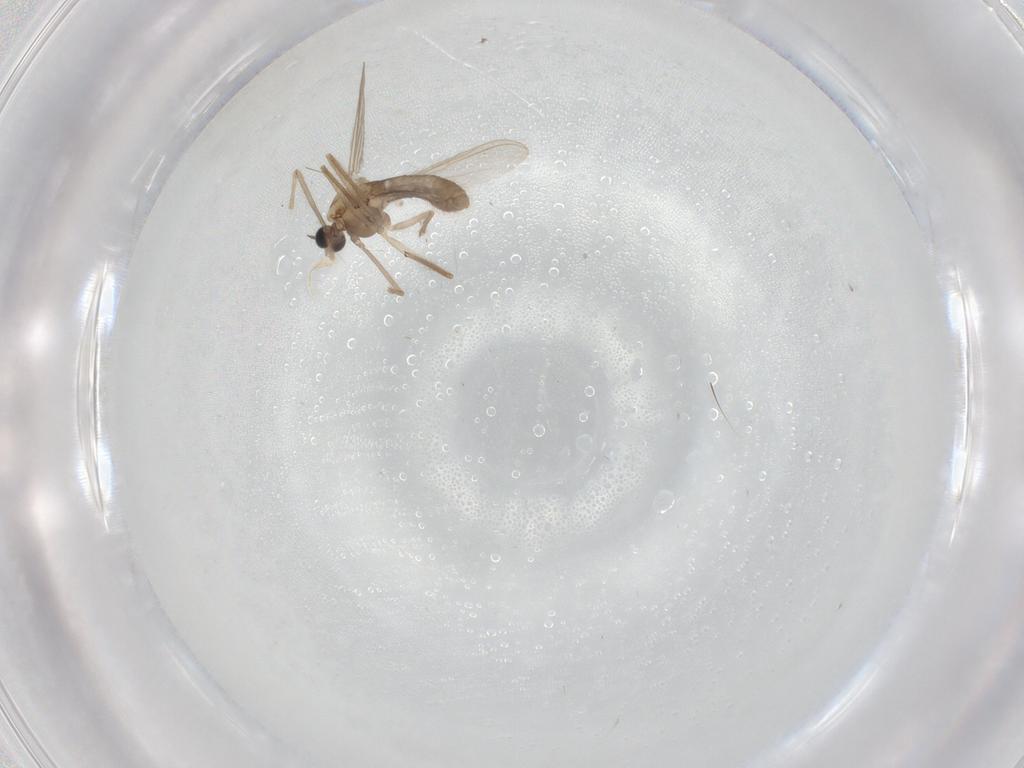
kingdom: Animalia
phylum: Arthropoda
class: Insecta
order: Diptera
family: Chironomidae
